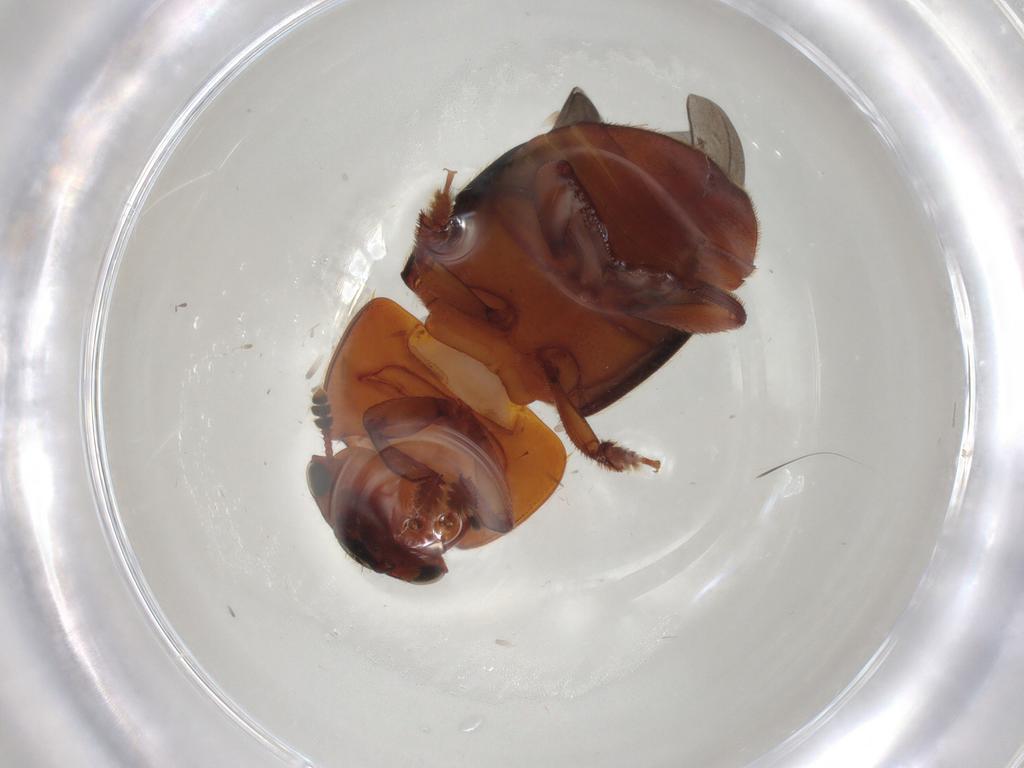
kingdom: Animalia
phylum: Arthropoda
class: Insecta
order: Coleoptera
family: Nitidulidae
